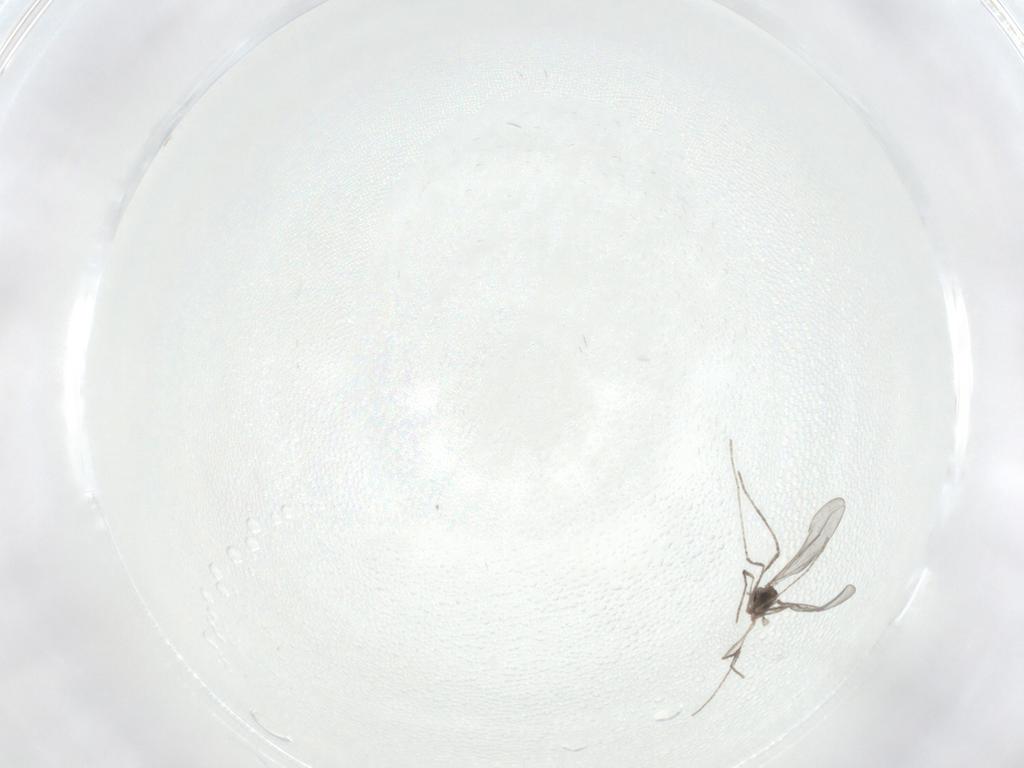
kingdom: Animalia
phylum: Arthropoda
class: Insecta
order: Diptera
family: Cecidomyiidae
